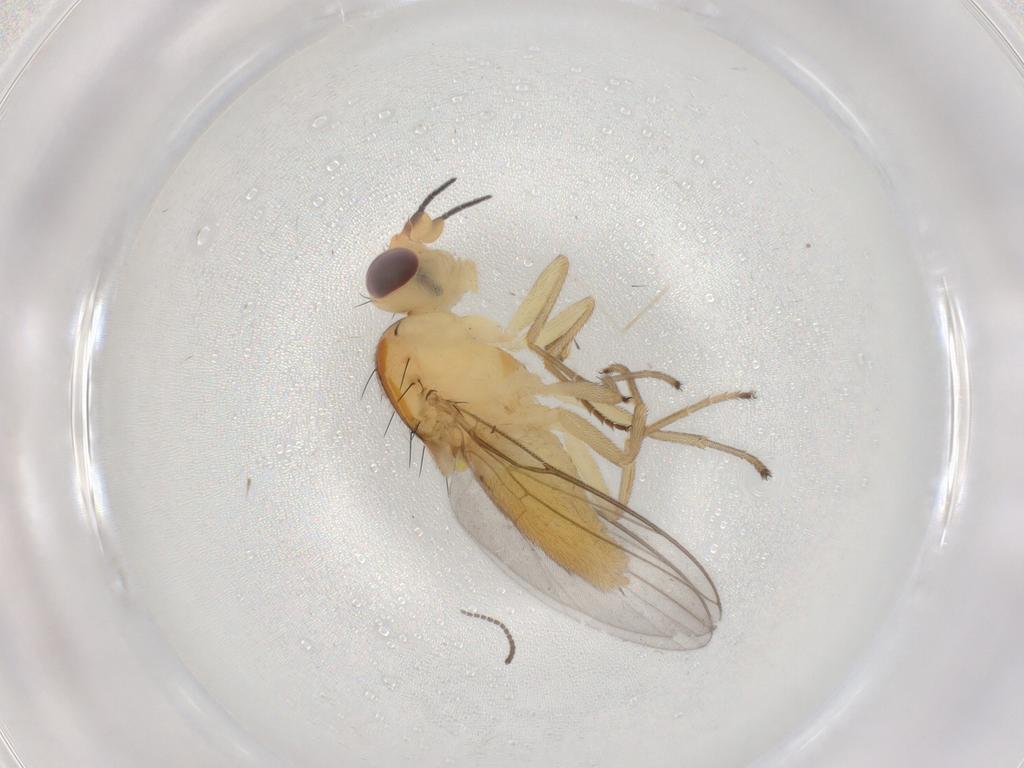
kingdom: Animalia
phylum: Arthropoda
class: Insecta
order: Diptera
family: Chloropidae
